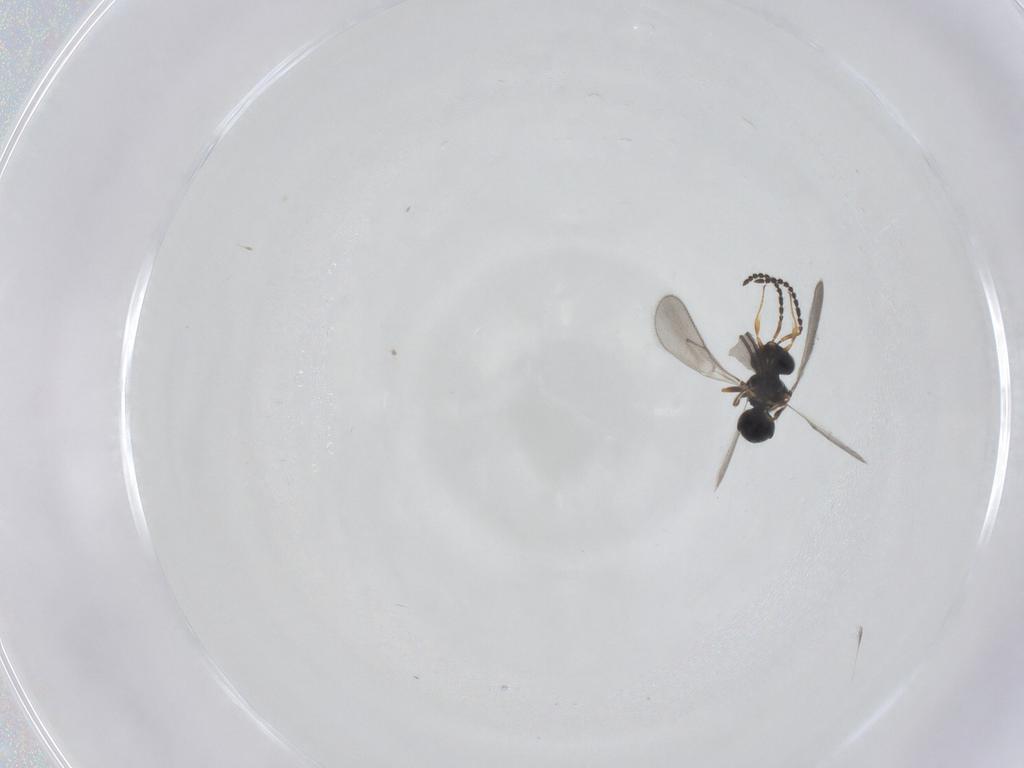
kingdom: Animalia
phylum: Arthropoda
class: Insecta
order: Hymenoptera
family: Scelionidae
